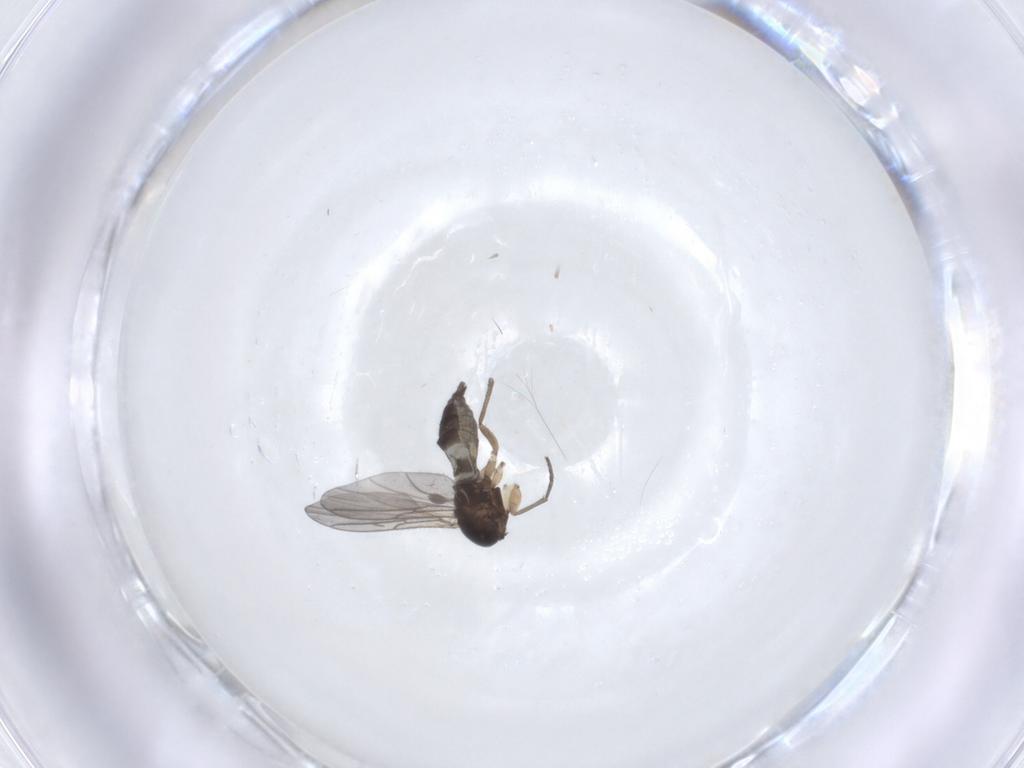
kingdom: Animalia
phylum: Arthropoda
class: Insecta
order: Diptera
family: Sciaridae
